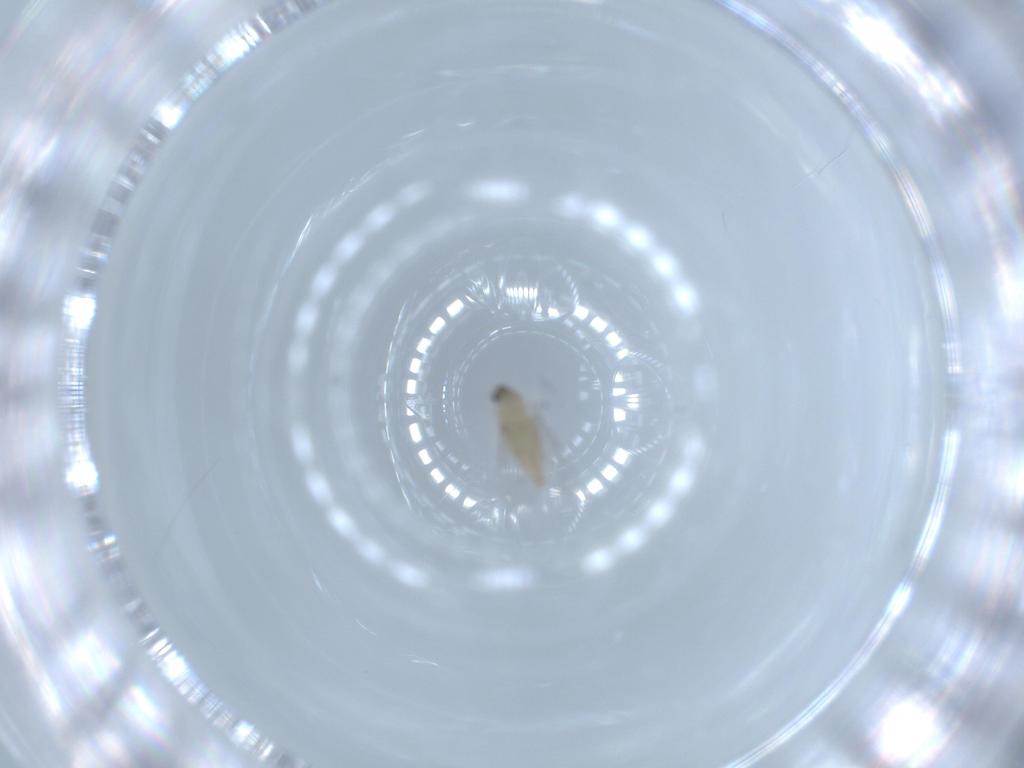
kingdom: Animalia
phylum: Arthropoda
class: Insecta
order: Diptera
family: Cecidomyiidae
